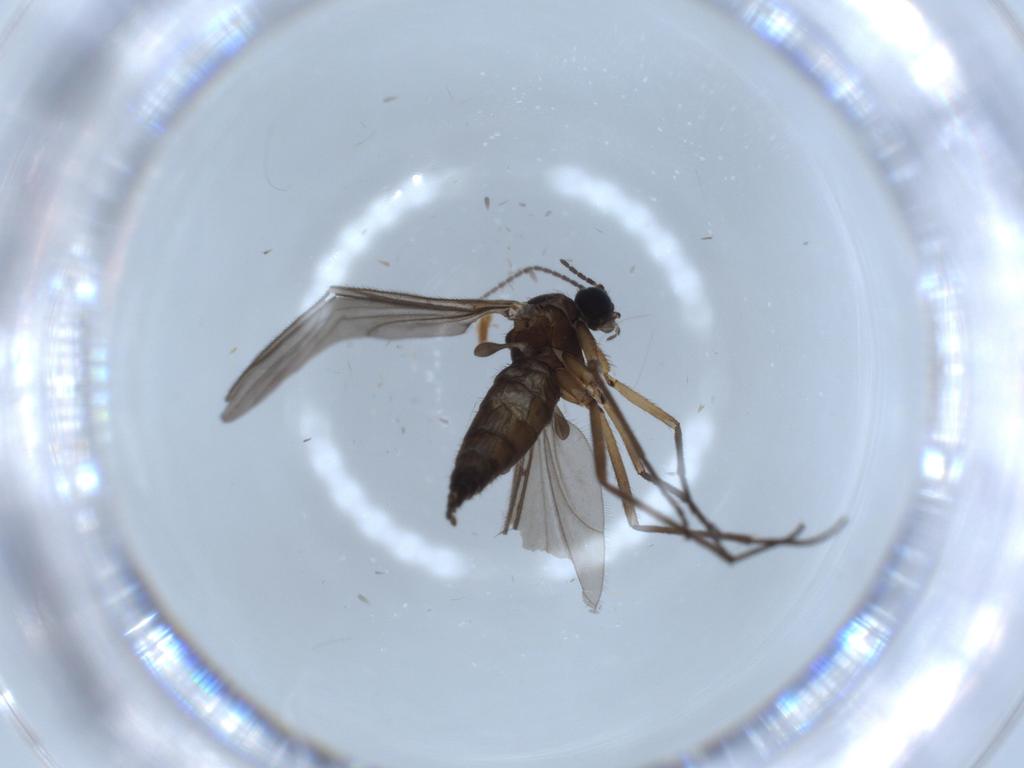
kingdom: Animalia
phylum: Arthropoda
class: Insecta
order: Diptera
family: Sciaridae
